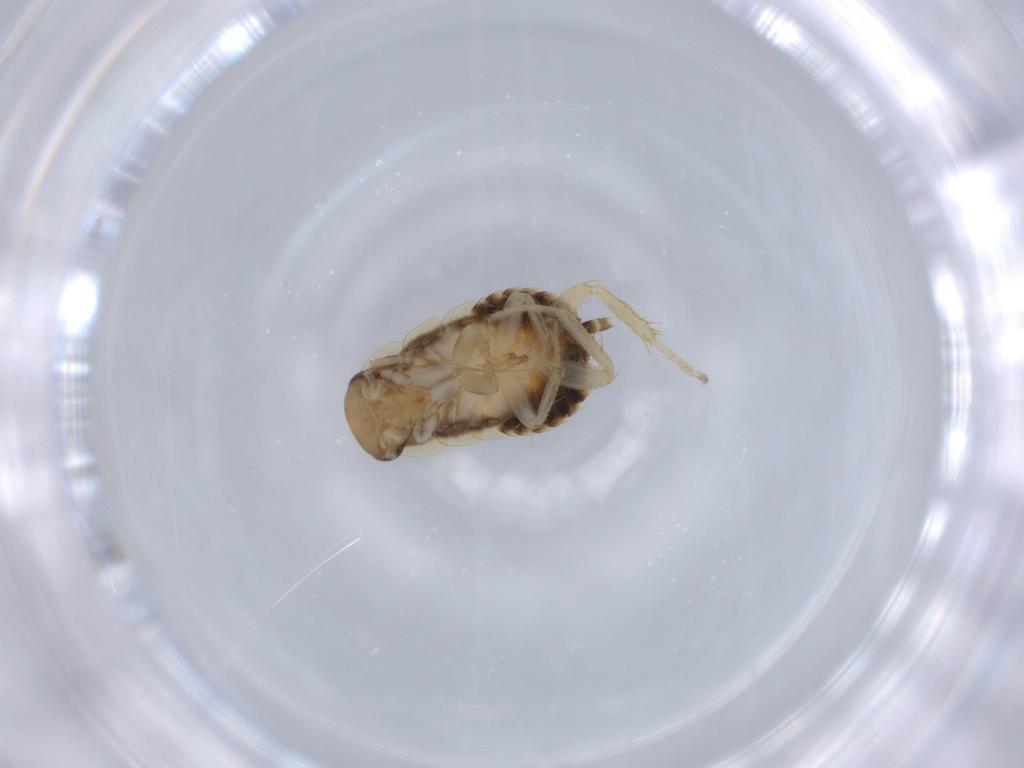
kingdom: Animalia
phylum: Arthropoda
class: Insecta
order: Blattodea
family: Ectobiidae
